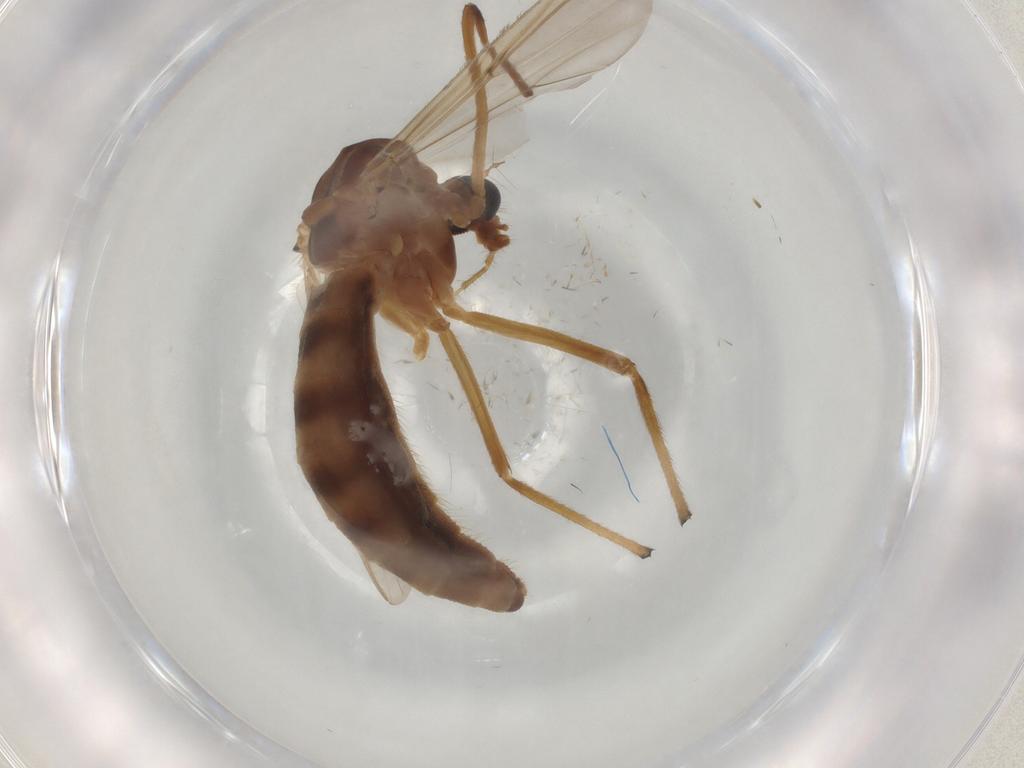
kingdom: Animalia
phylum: Arthropoda
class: Insecta
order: Diptera
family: Chironomidae
